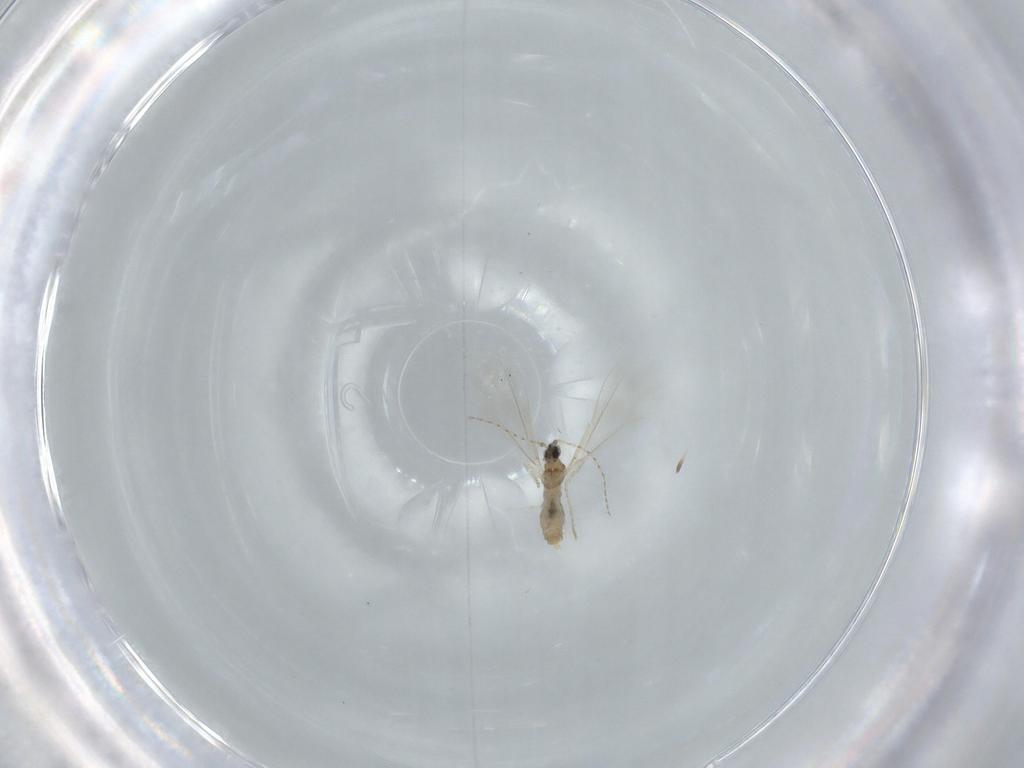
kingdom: Animalia
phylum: Arthropoda
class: Insecta
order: Diptera
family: Cecidomyiidae
